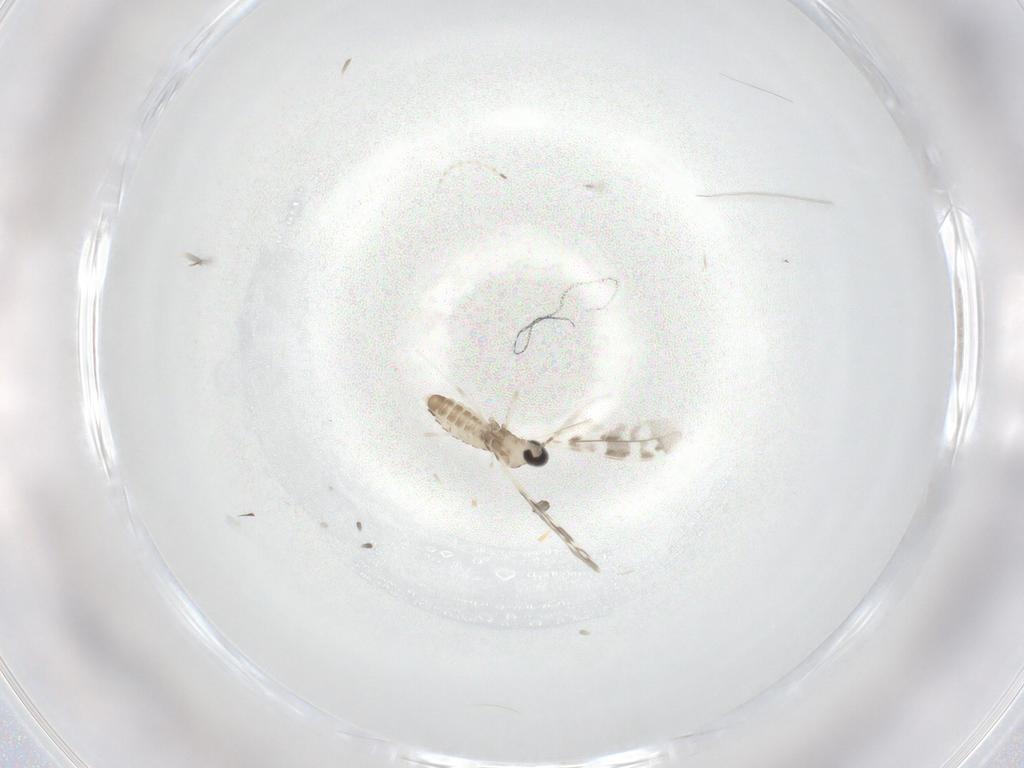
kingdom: Animalia
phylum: Arthropoda
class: Insecta
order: Diptera
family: Cecidomyiidae
